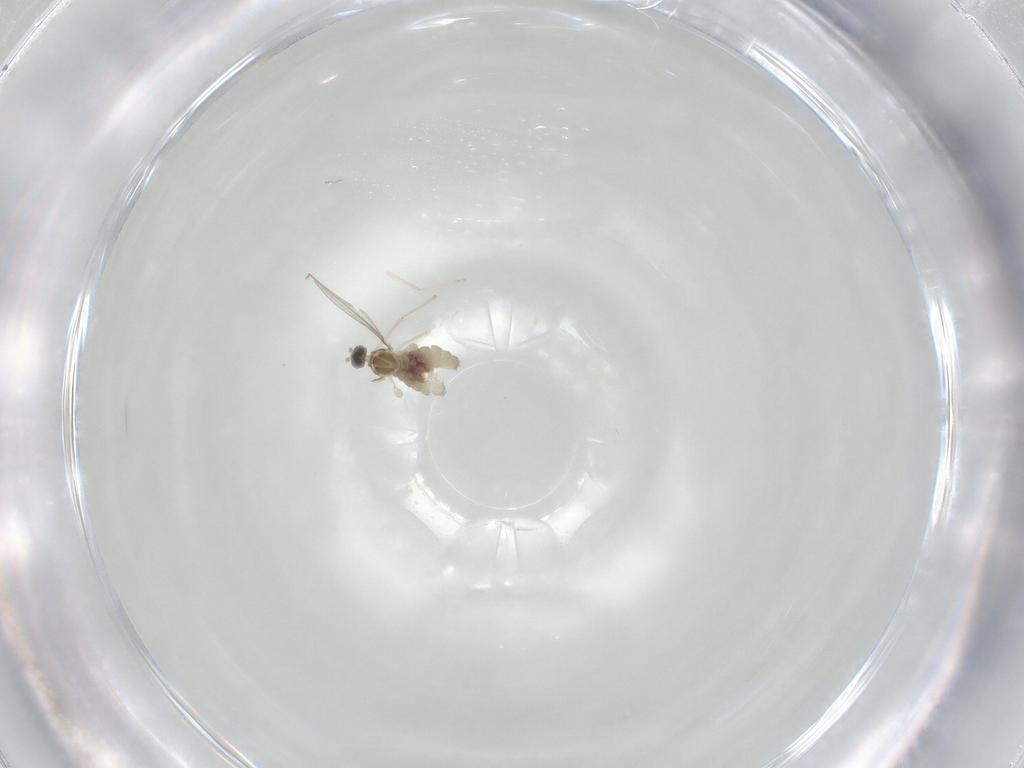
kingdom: Animalia
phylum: Arthropoda
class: Insecta
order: Diptera
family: Cecidomyiidae
